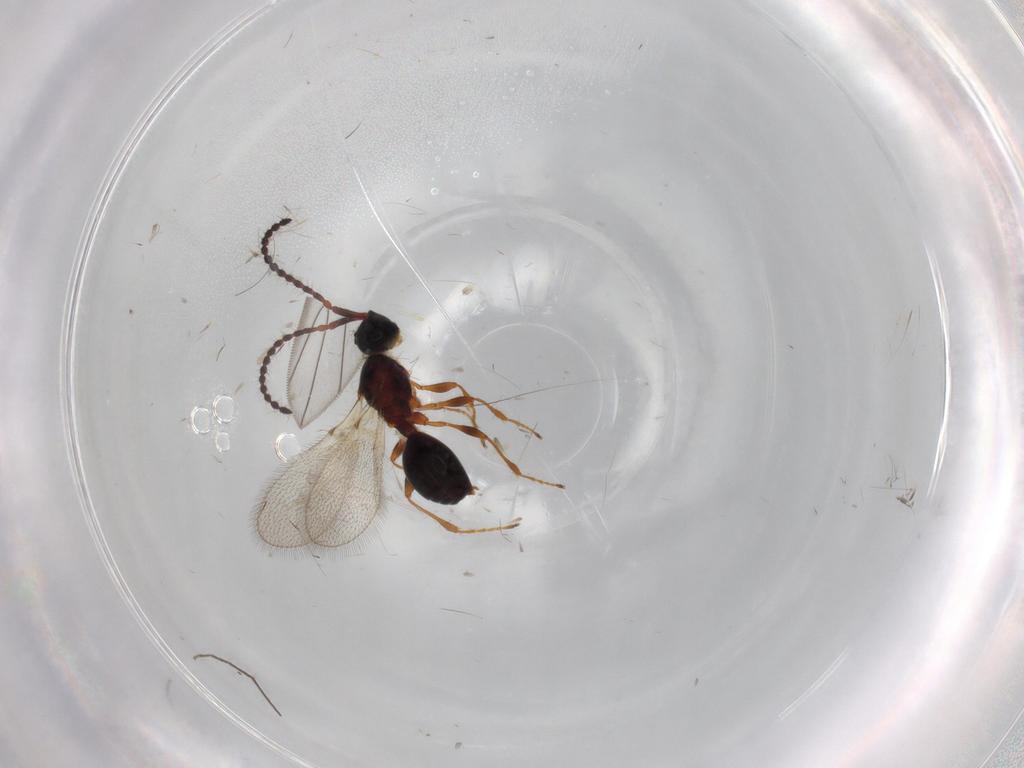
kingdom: Animalia
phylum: Arthropoda
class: Insecta
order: Hymenoptera
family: Diapriidae
